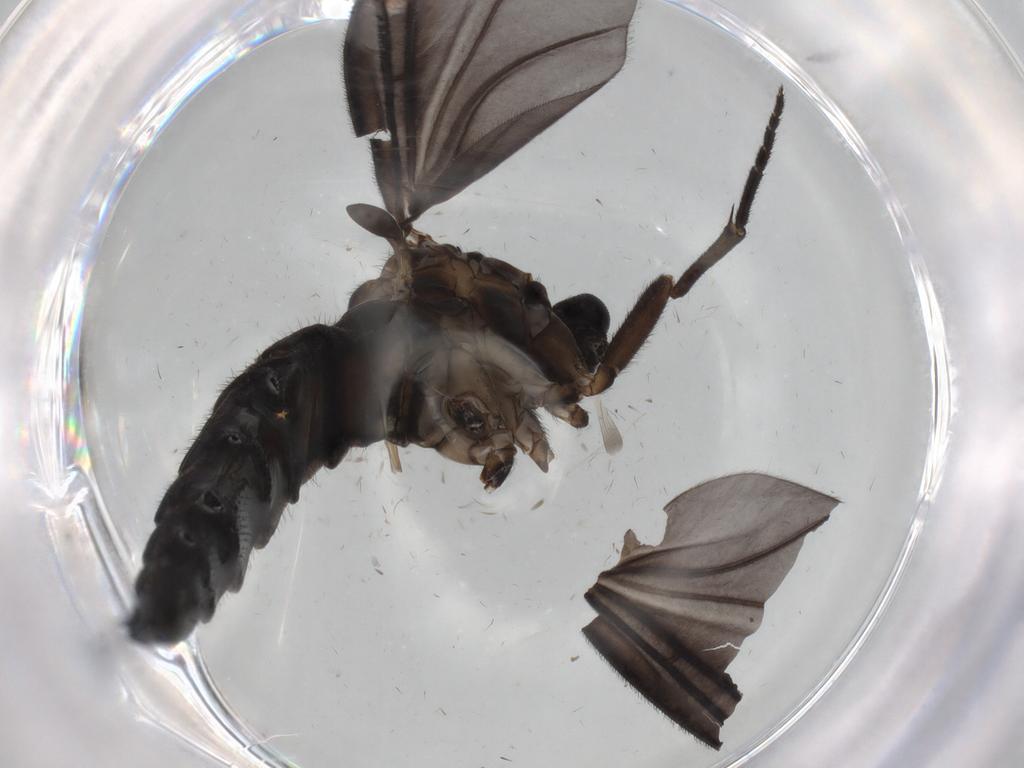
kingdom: Animalia
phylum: Arthropoda
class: Insecta
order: Diptera
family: Sciaridae
